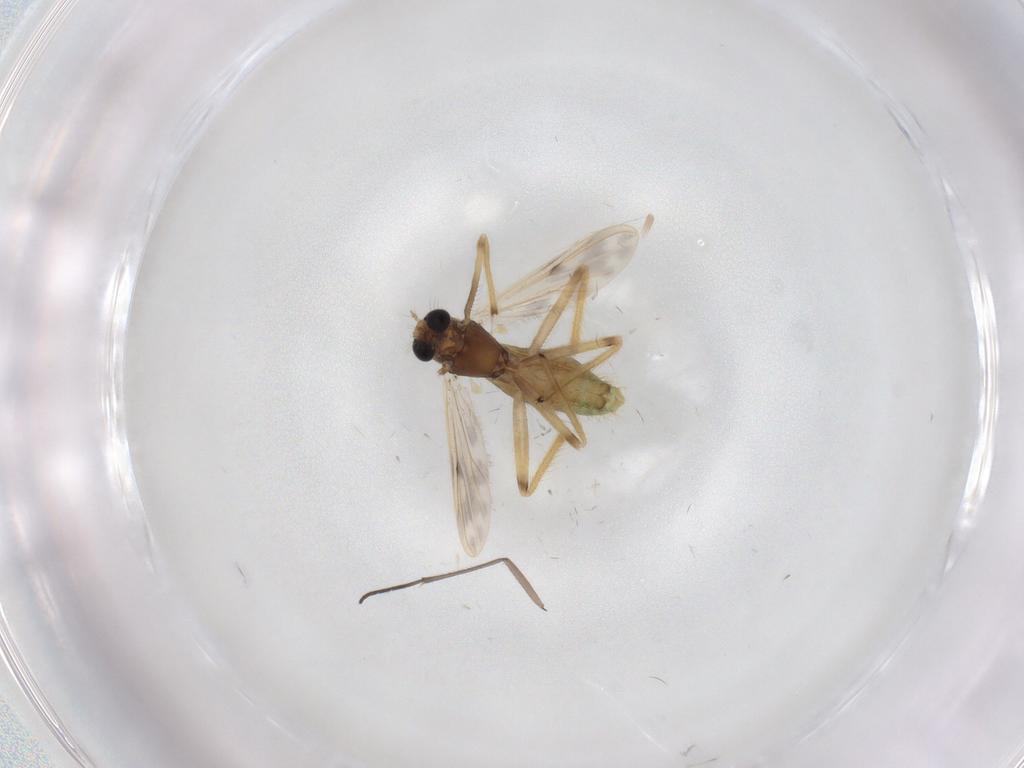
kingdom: Animalia
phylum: Arthropoda
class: Insecta
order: Diptera
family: Chironomidae
